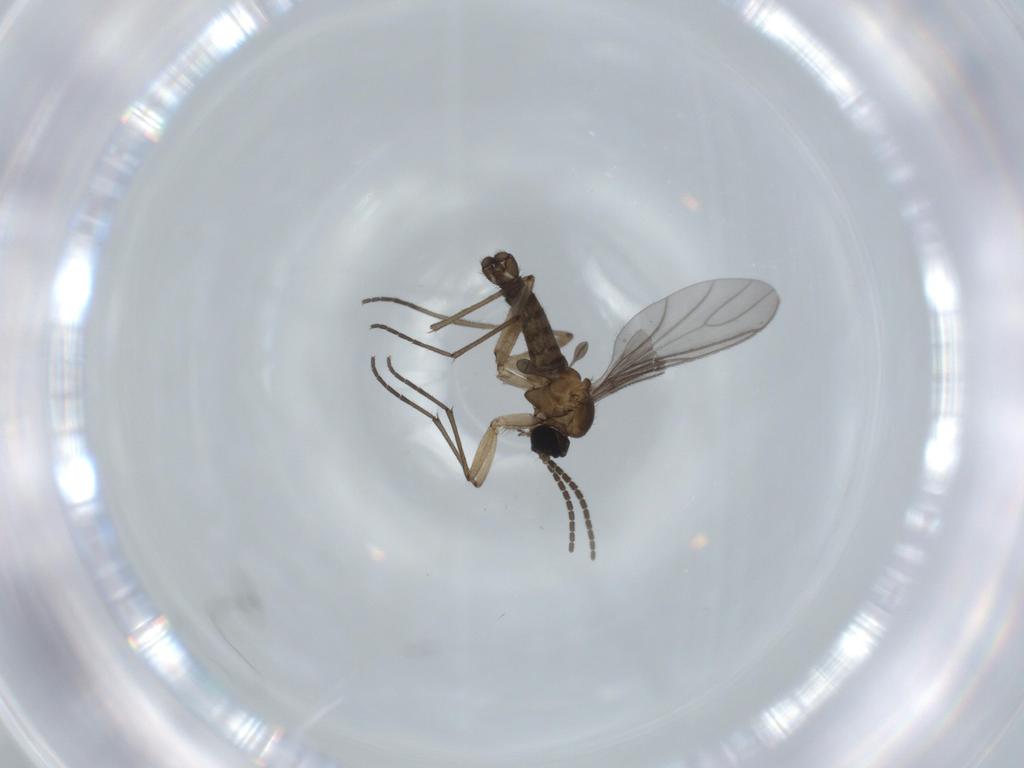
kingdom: Animalia
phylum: Arthropoda
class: Insecta
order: Diptera
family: Sciaridae
